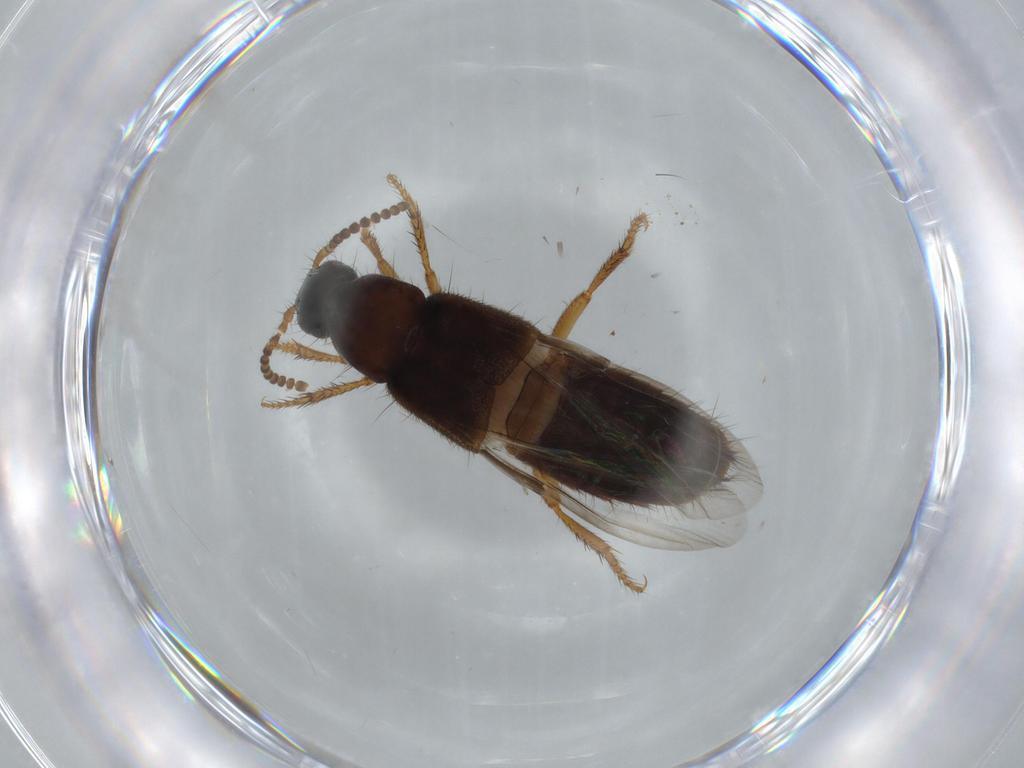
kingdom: Animalia
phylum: Arthropoda
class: Insecta
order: Coleoptera
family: Staphylinidae
